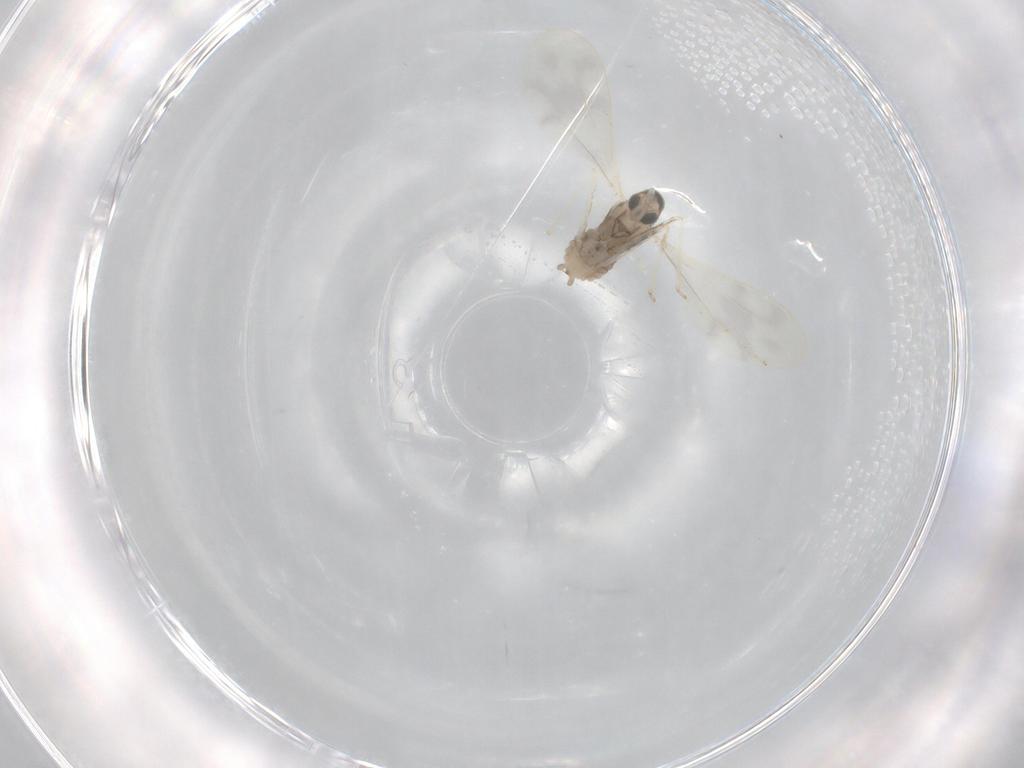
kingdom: Animalia
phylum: Arthropoda
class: Insecta
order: Diptera
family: Cecidomyiidae
